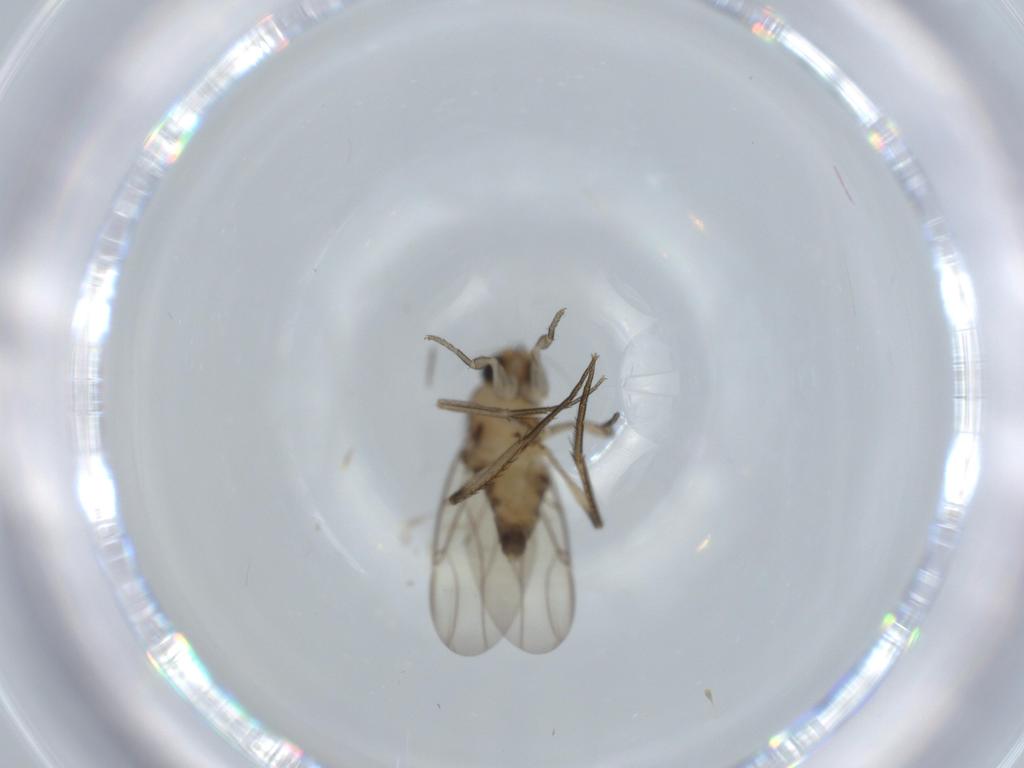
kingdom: Animalia
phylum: Arthropoda
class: Insecta
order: Diptera
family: Phoridae
